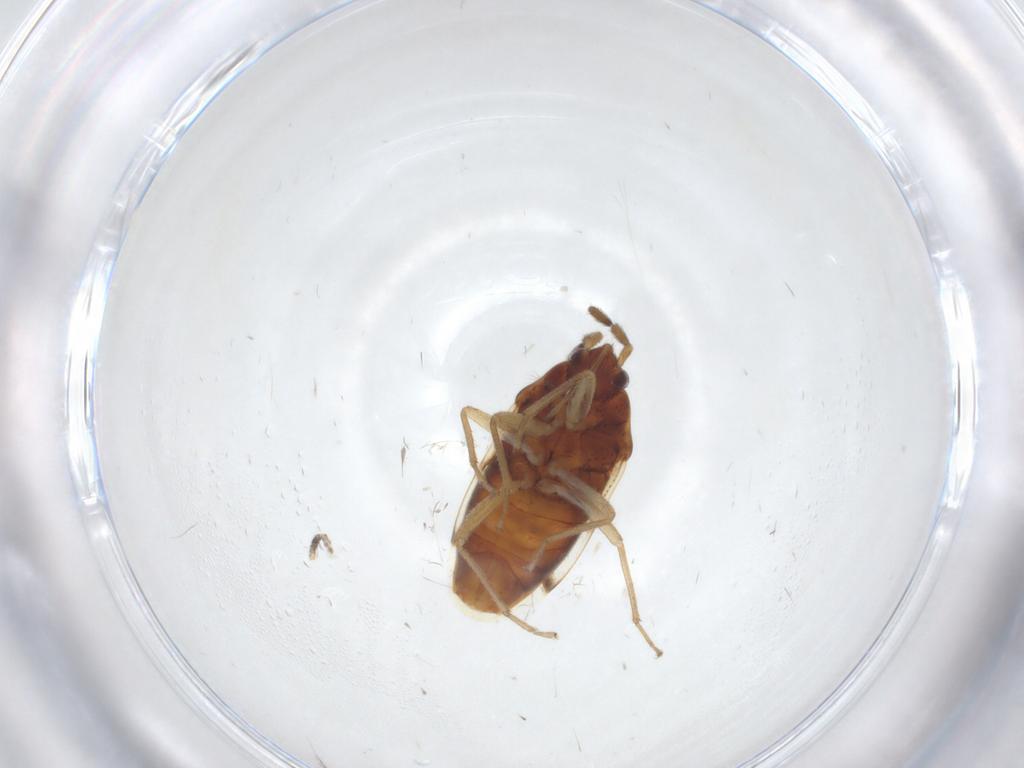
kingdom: Animalia
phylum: Arthropoda
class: Insecta
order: Hemiptera
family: Rhyparochromidae
